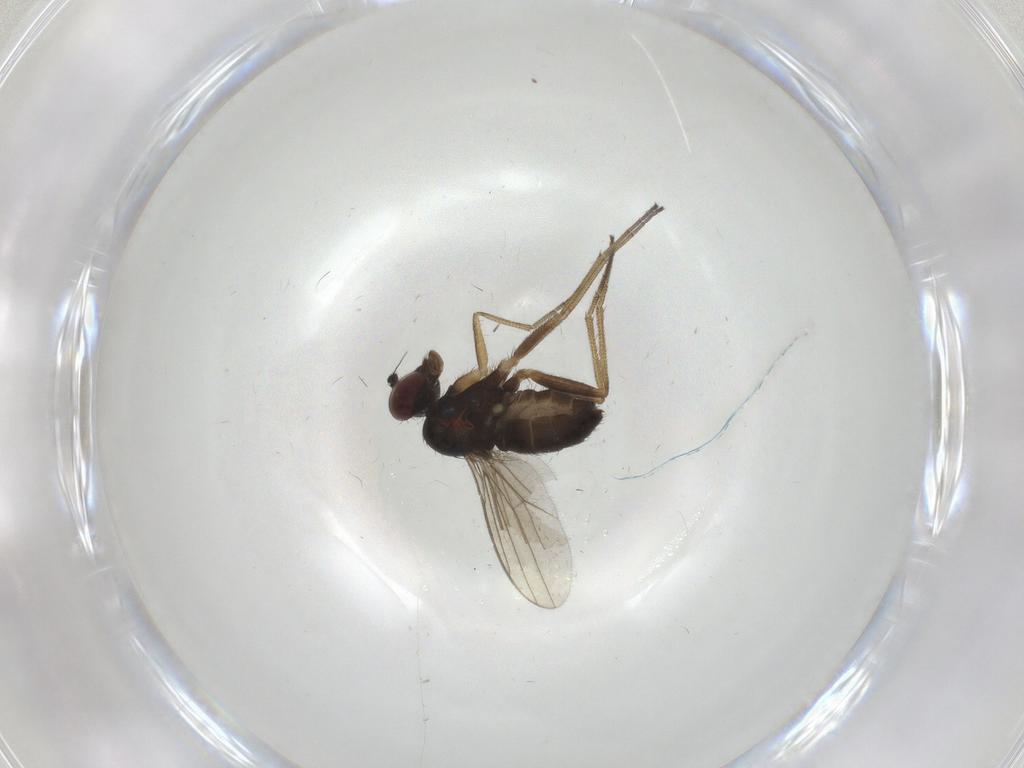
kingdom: Animalia
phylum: Arthropoda
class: Insecta
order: Diptera
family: Dolichopodidae
